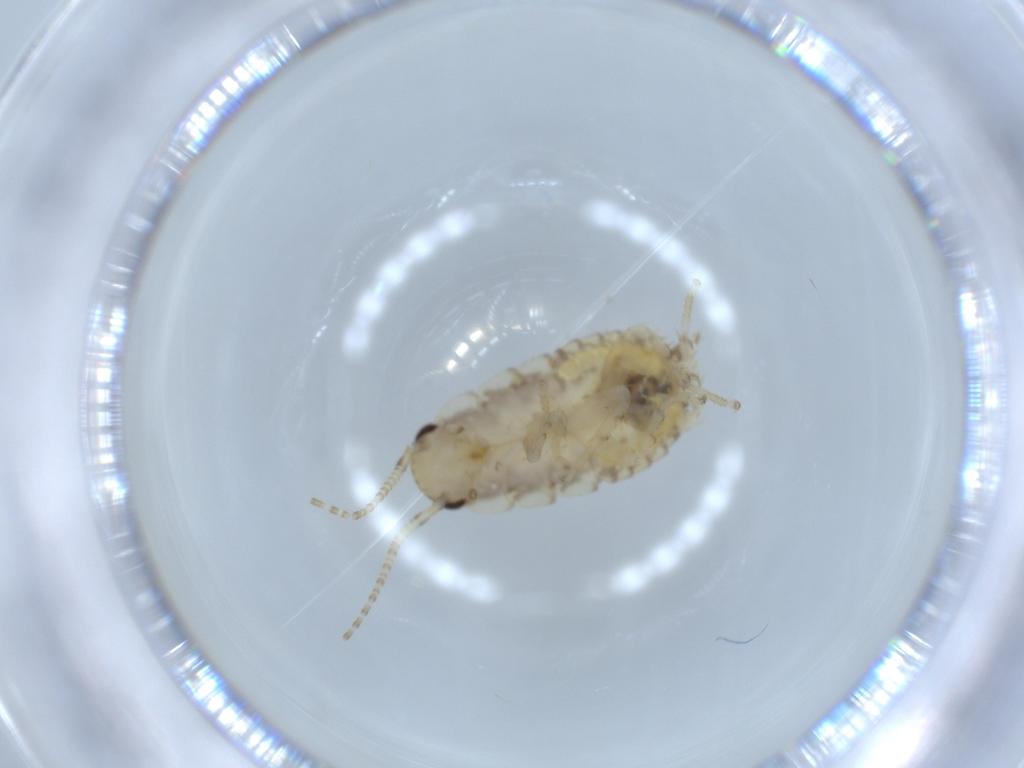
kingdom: Animalia
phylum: Arthropoda
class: Insecta
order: Blattodea
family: Ectobiidae
